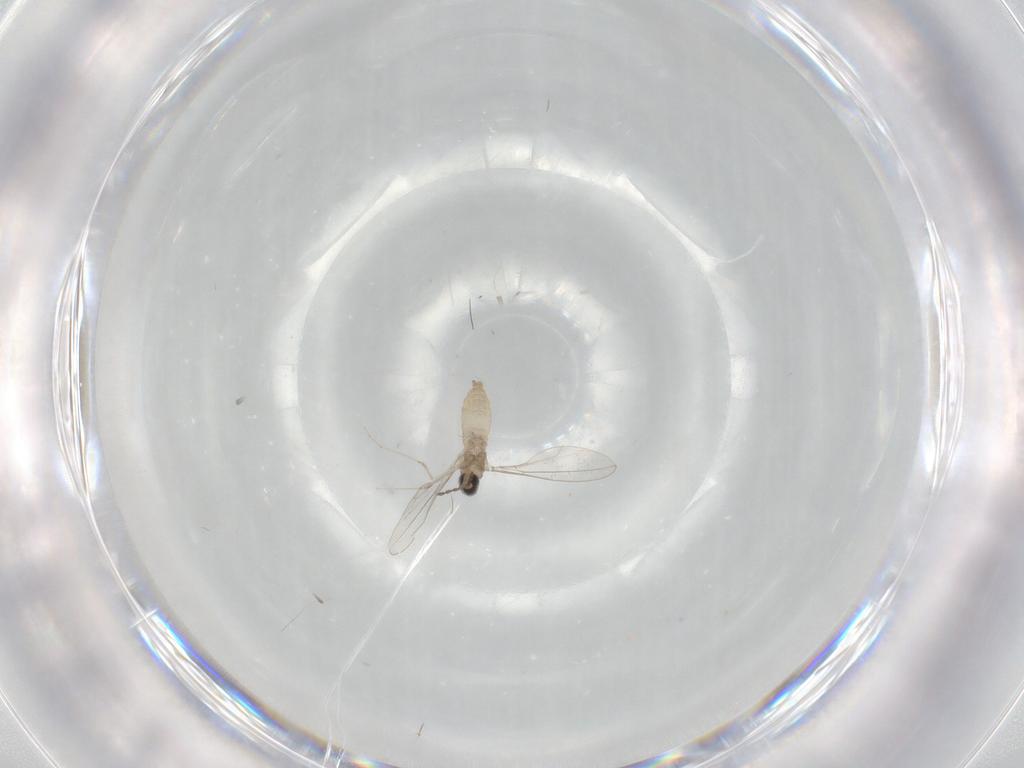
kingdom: Animalia
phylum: Arthropoda
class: Insecta
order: Diptera
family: Cecidomyiidae
